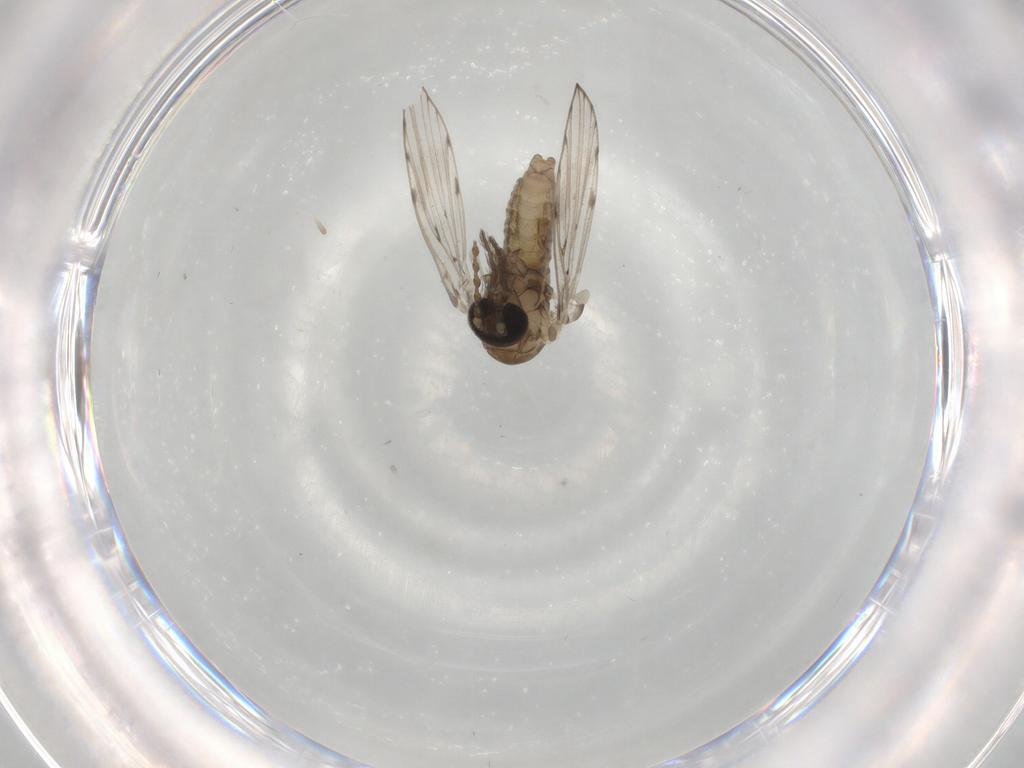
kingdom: Animalia
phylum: Arthropoda
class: Insecta
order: Diptera
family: Psychodidae
